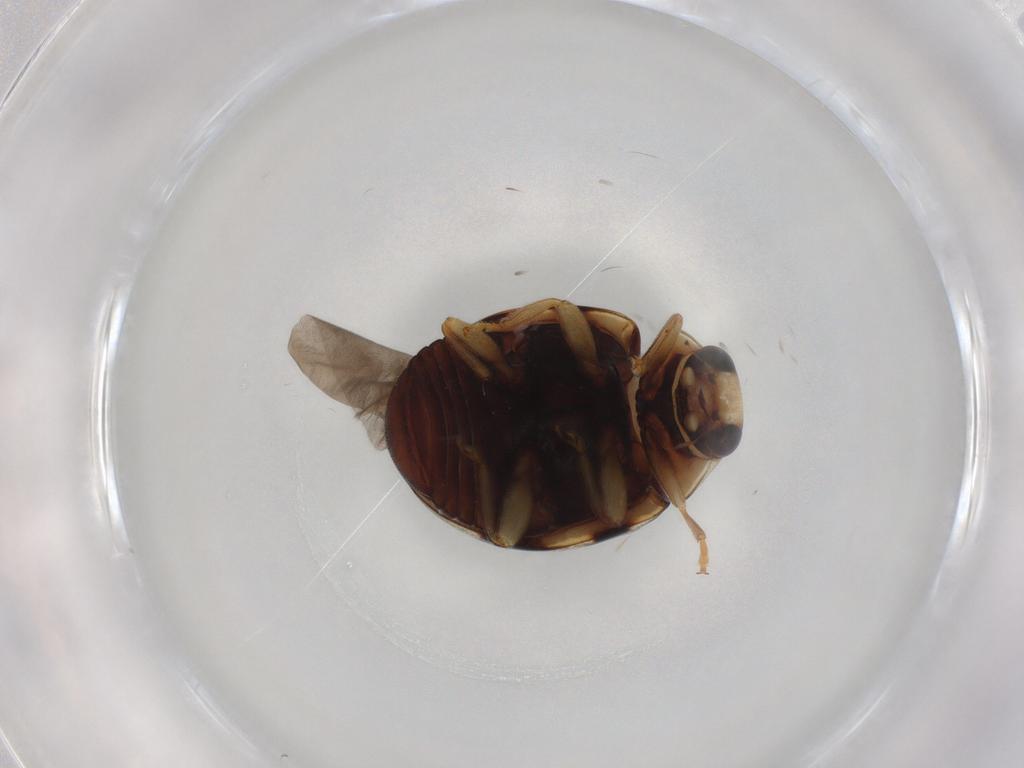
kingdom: Animalia
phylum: Arthropoda
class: Insecta
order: Coleoptera
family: Coccinellidae
